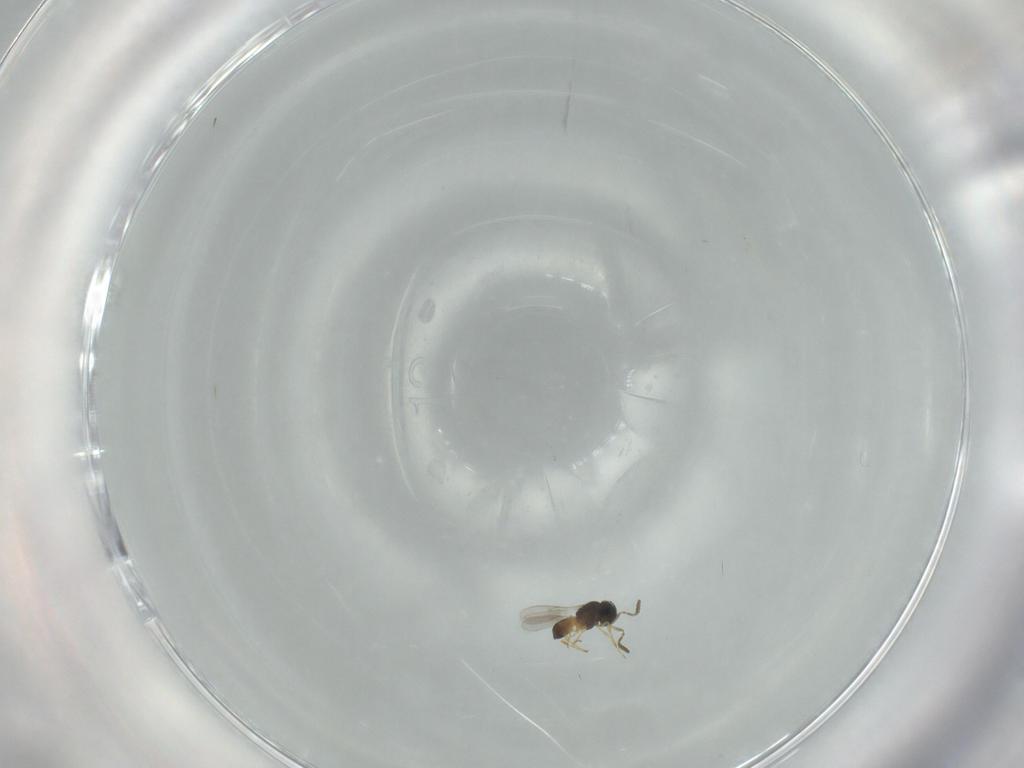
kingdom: Animalia
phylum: Arthropoda
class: Insecta
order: Hymenoptera
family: Scelionidae
